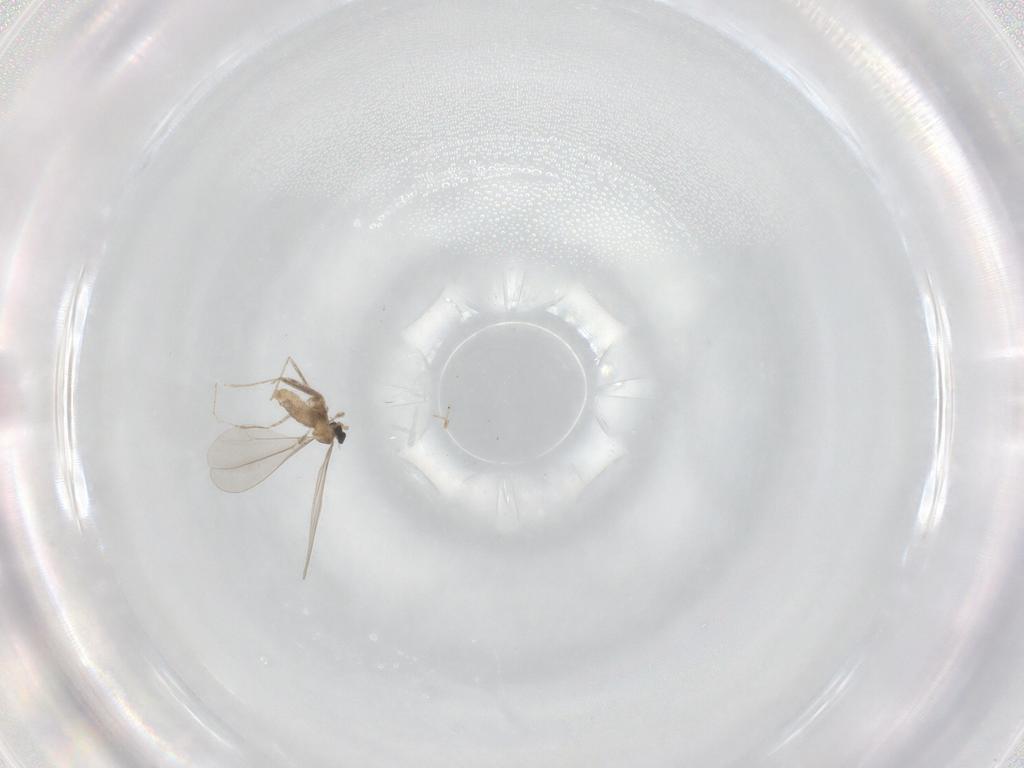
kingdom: Animalia
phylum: Arthropoda
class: Insecta
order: Diptera
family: Cecidomyiidae
